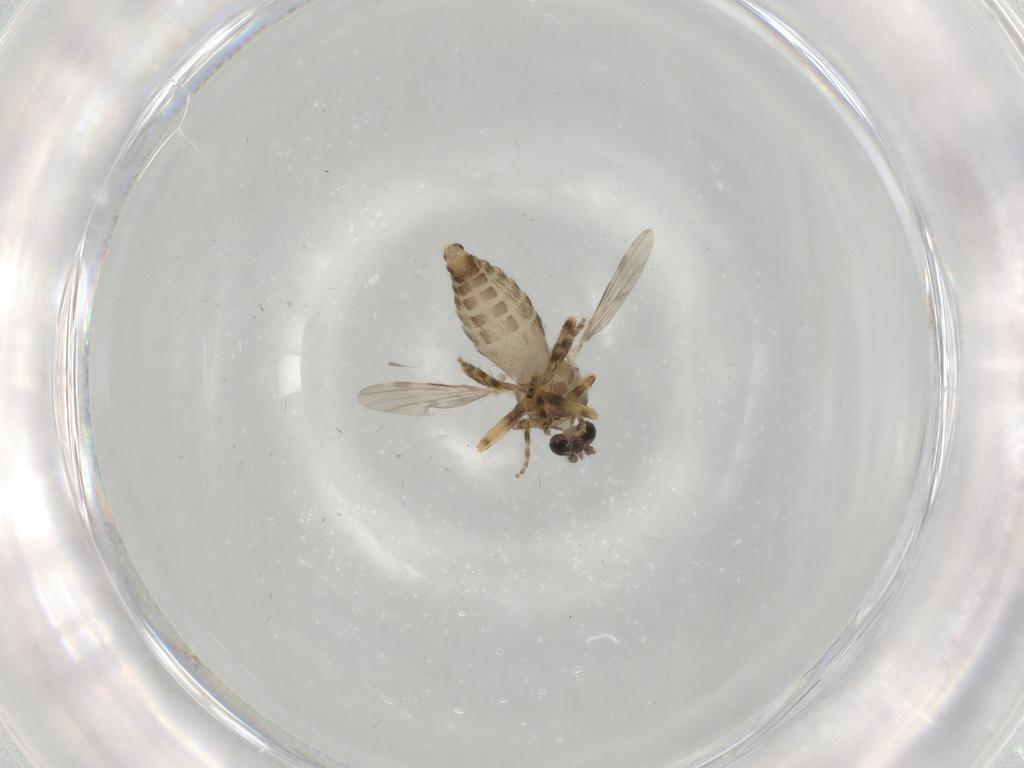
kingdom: Animalia
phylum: Arthropoda
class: Insecta
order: Diptera
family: Ceratopogonidae
